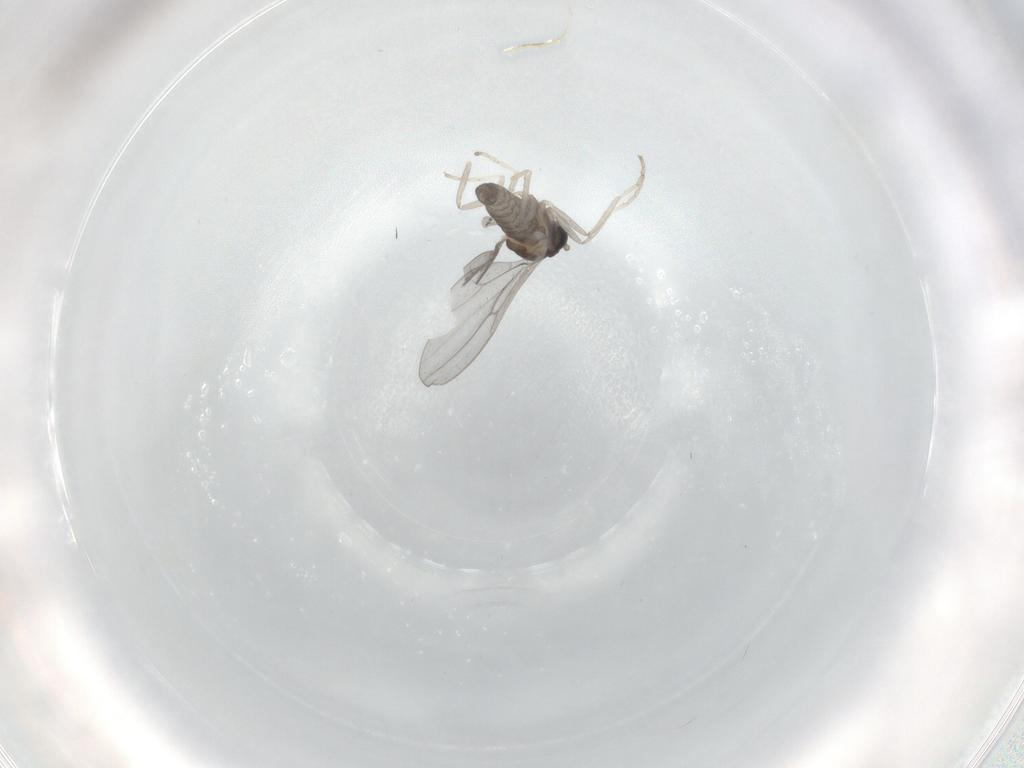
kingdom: Animalia
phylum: Arthropoda
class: Insecta
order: Diptera
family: Cecidomyiidae
